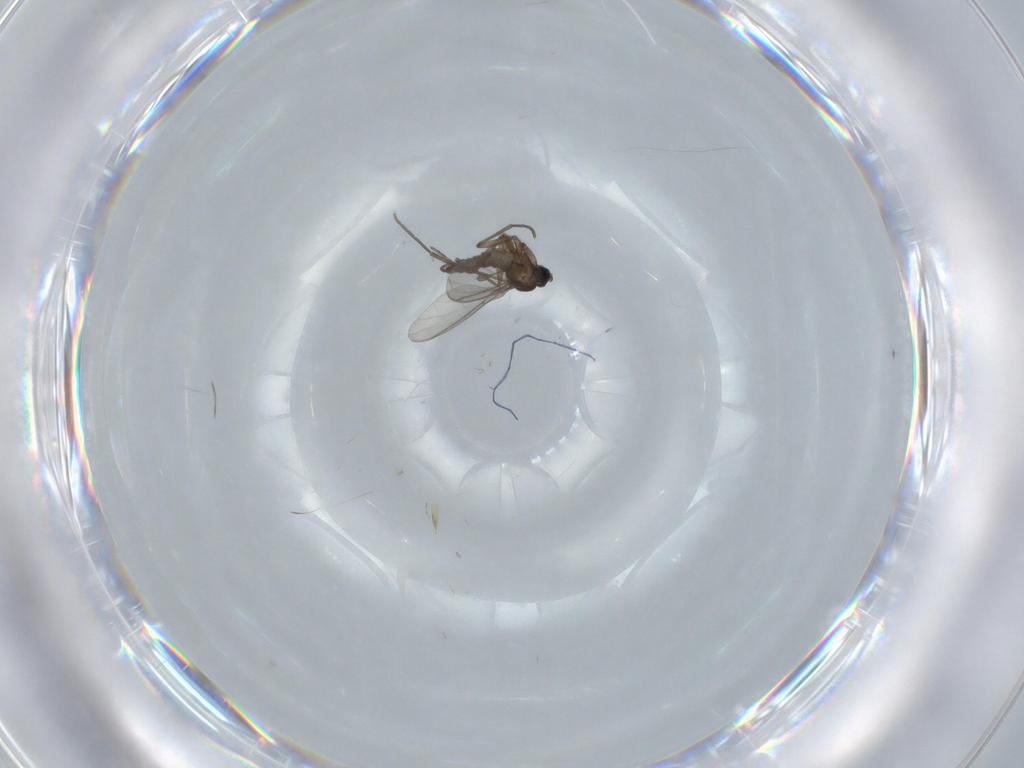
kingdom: Animalia
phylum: Arthropoda
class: Insecta
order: Diptera
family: Sciaridae
